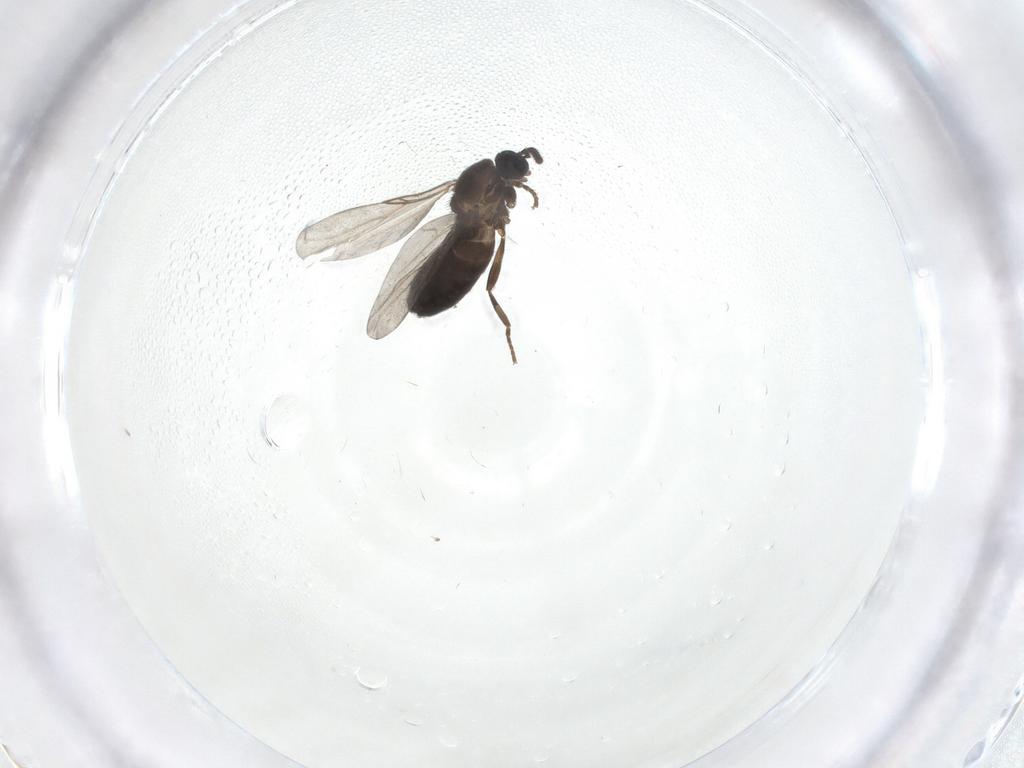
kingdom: Animalia
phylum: Arthropoda
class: Insecta
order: Diptera
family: Scatopsidae
